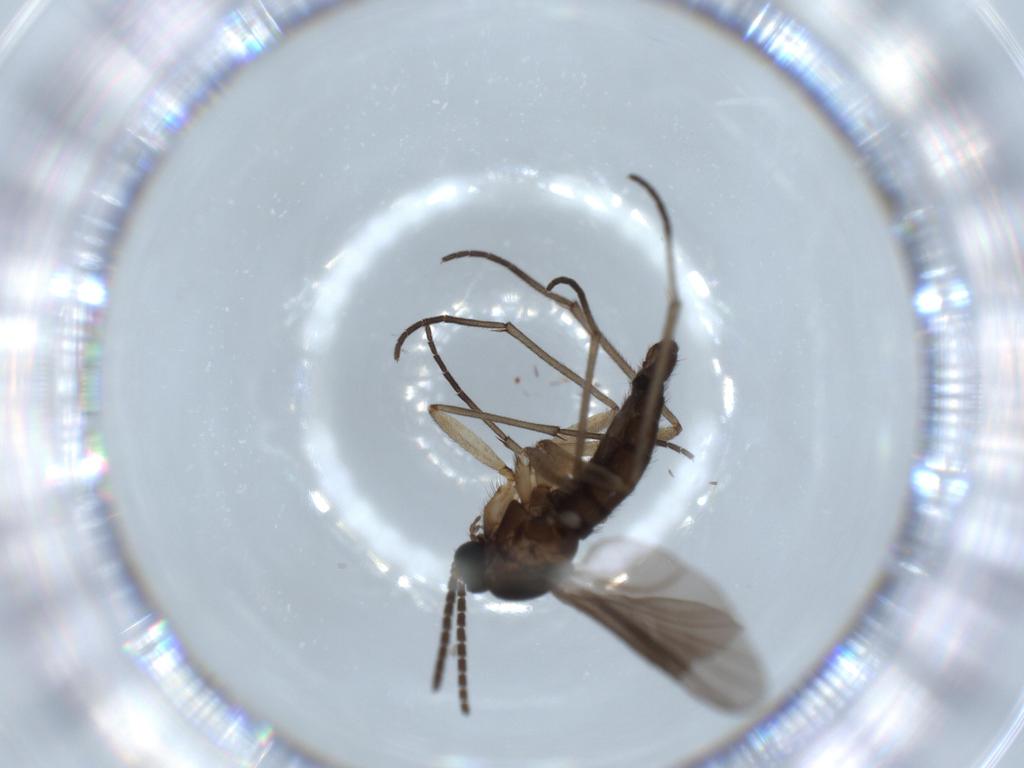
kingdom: Animalia
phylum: Arthropoda
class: Insecta
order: Diptera
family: Sciaridae
